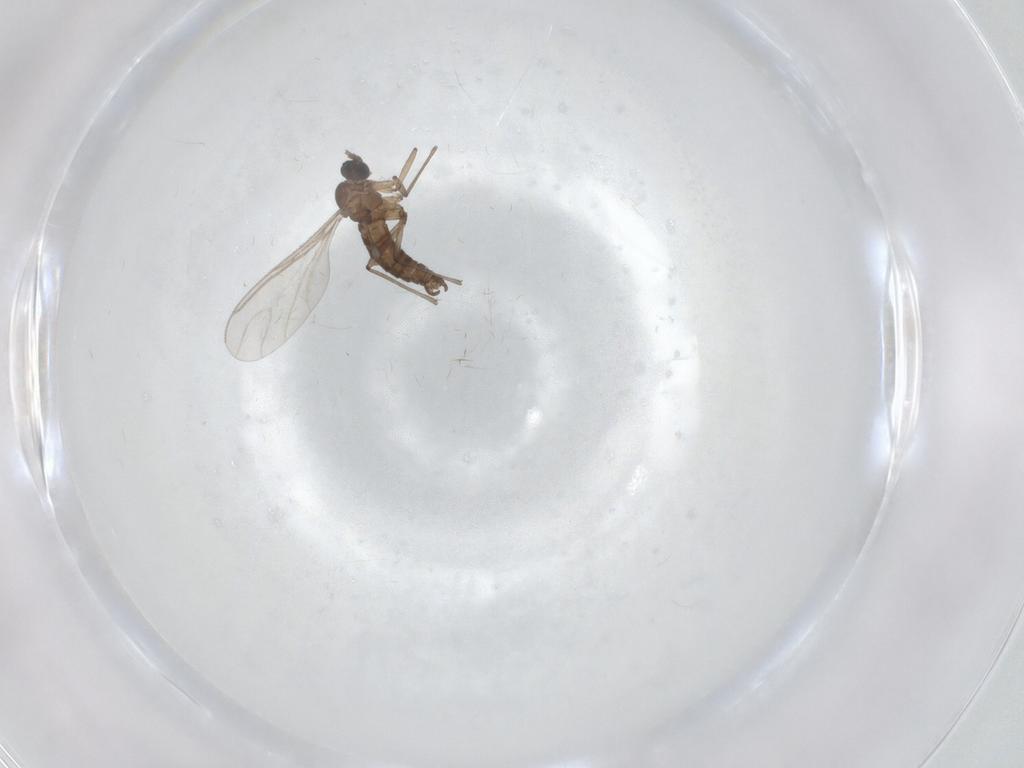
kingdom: Animalia
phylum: Arthropoda
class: Insecta
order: Diptera
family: Sciaridae
